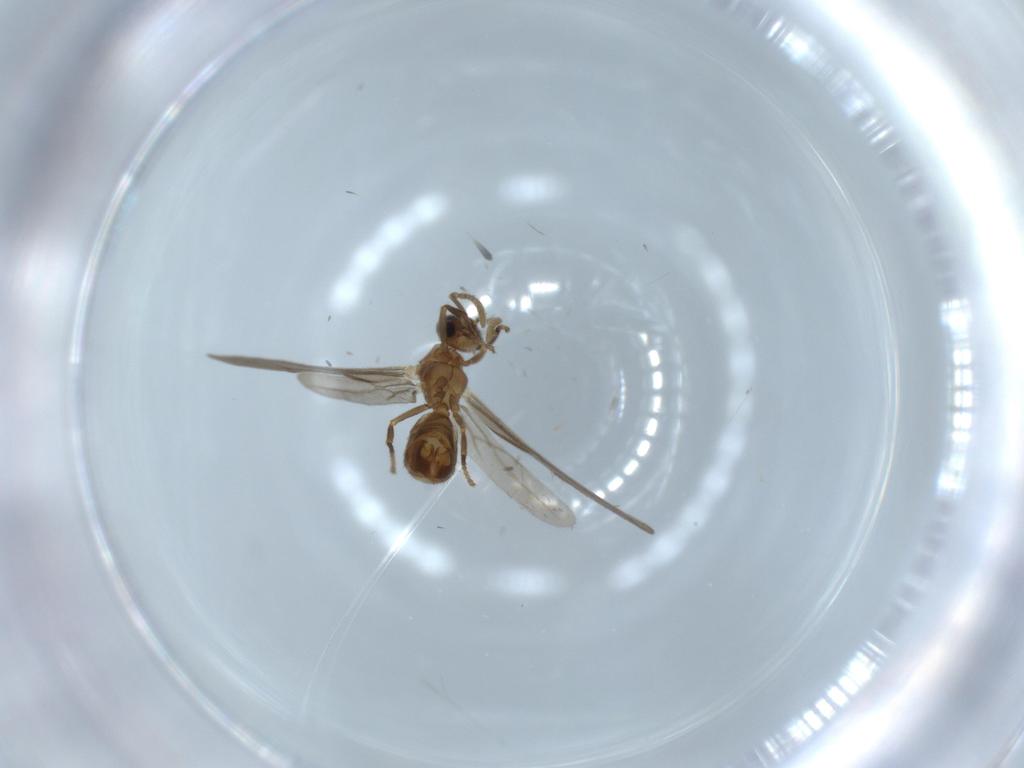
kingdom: Animalia
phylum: Arthropoda
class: Insecta
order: Hymenoptera
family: Formicidae
